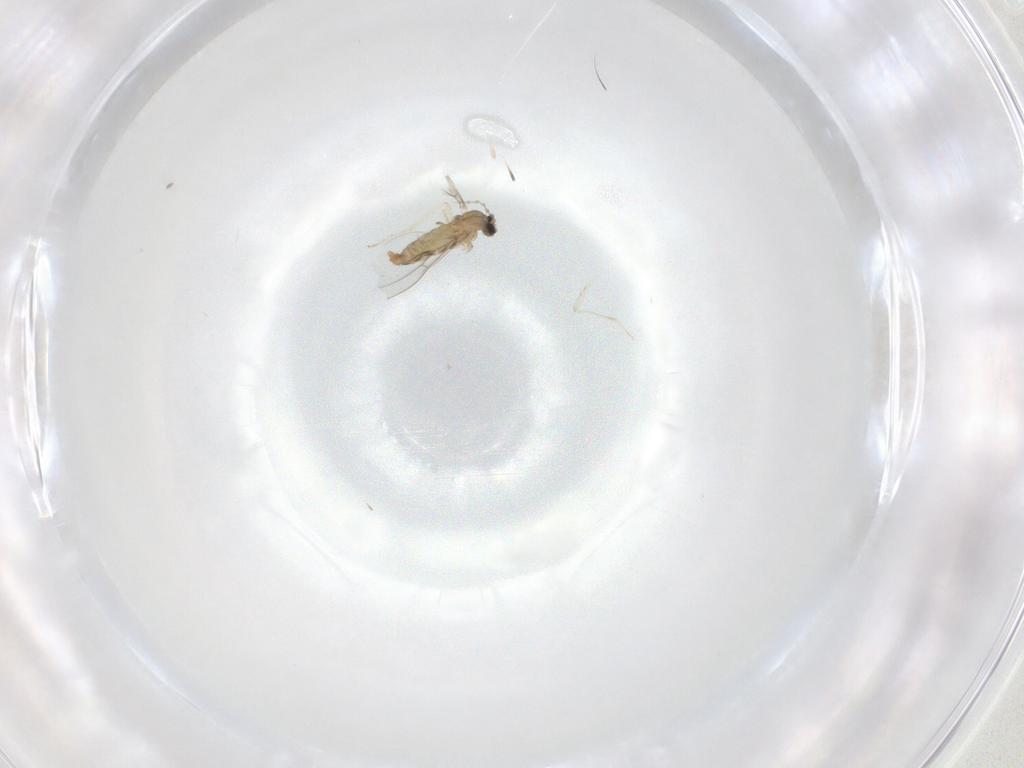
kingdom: Animalia
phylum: Arthropoda
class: Insecta
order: Diptera
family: Cecidomyiidae
